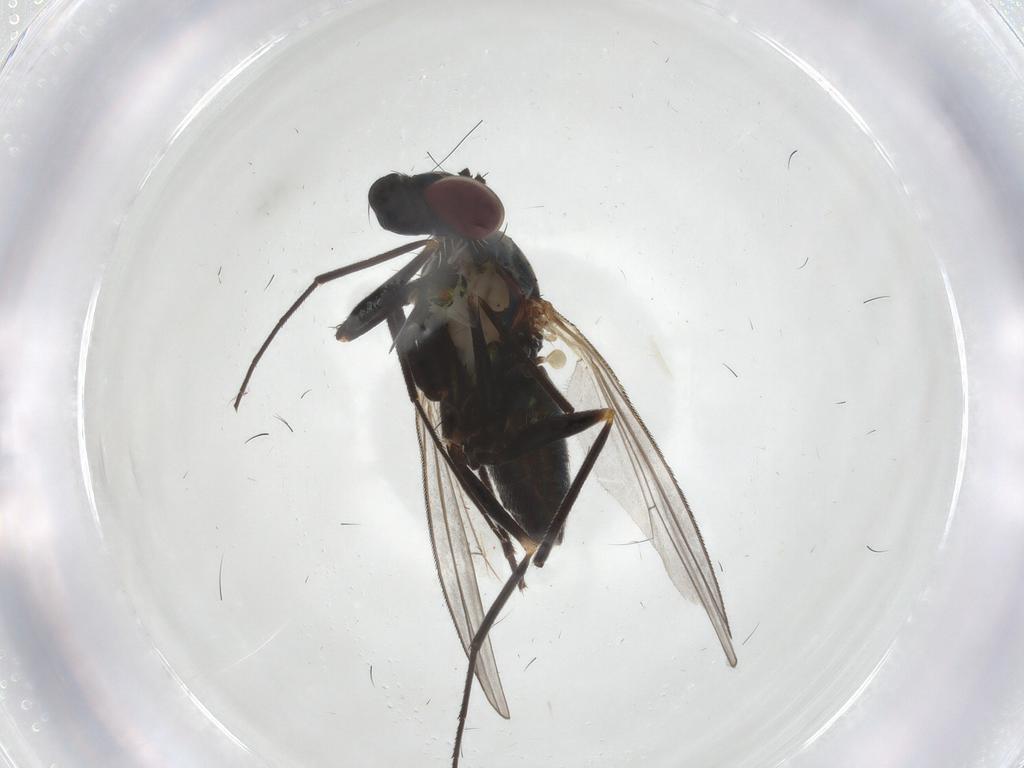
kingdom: Animalia
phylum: Arthropoda
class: Insecta
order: Diptera
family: Dolichopodidae
